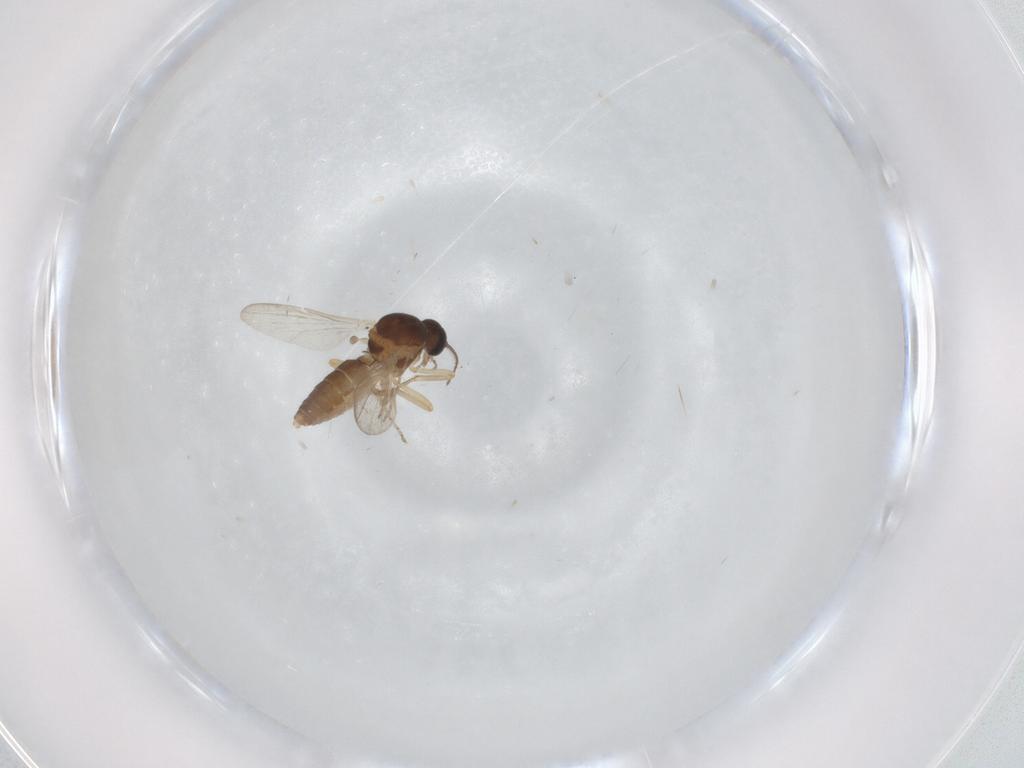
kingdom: Animalia
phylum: Arthropoda
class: Insecta
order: Diptera
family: Ceratopogonidae
